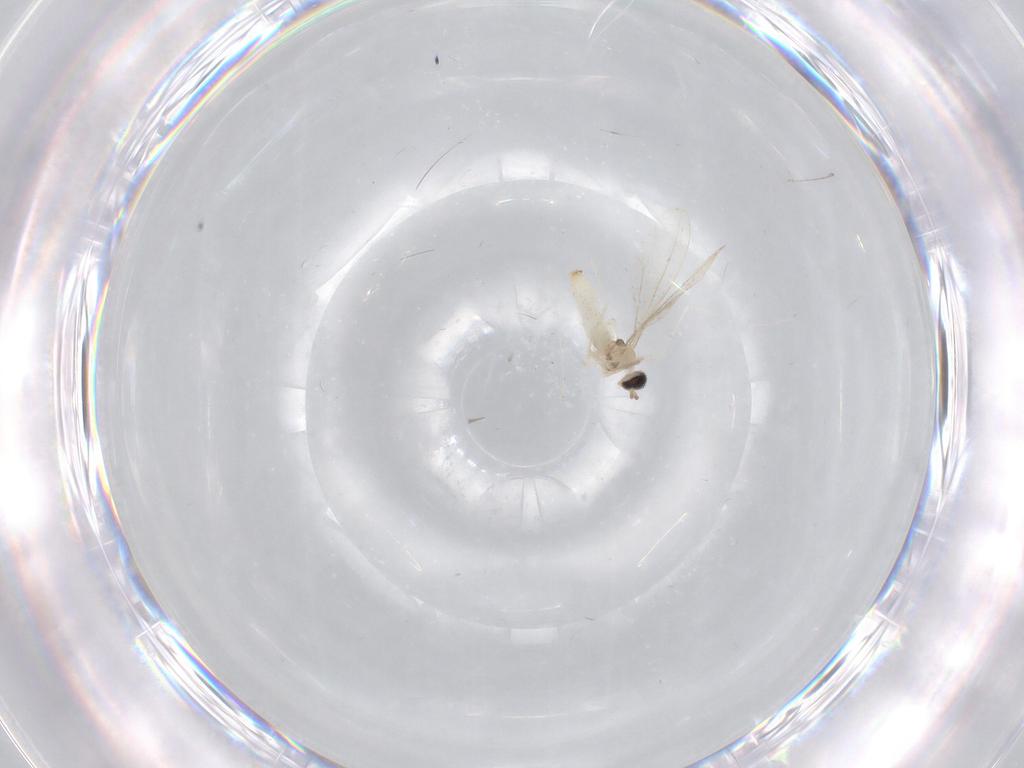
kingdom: Animalia
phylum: Arthropoda
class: Insecta
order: Diptera
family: Cecidomyiidae
